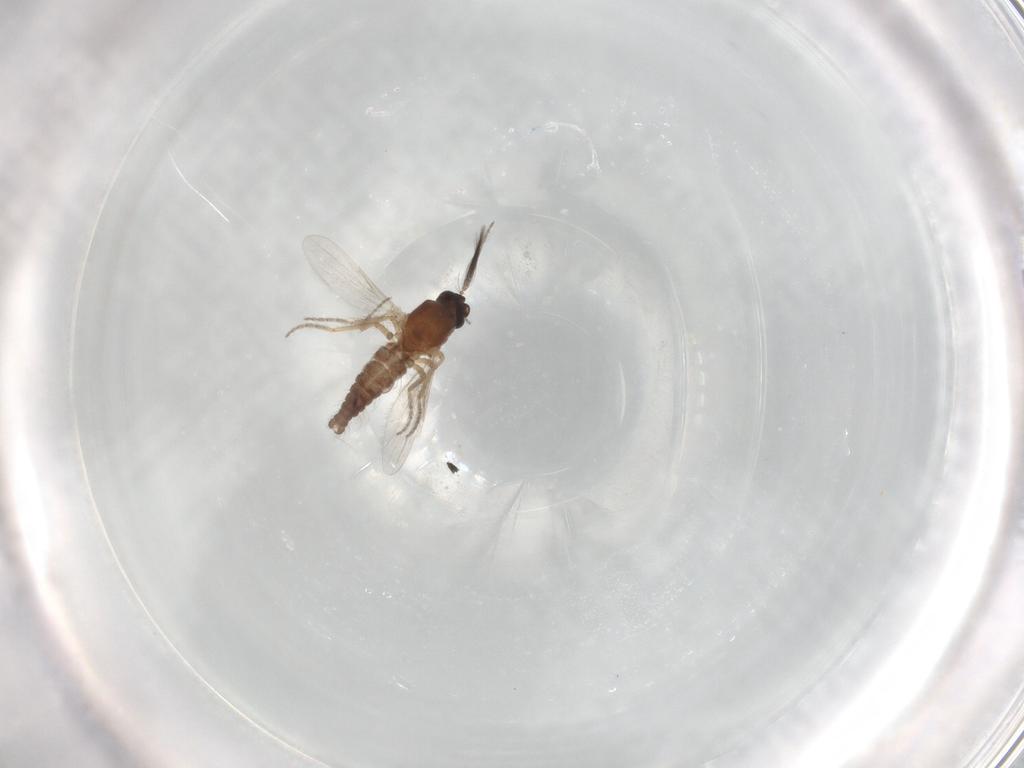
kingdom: Animalia
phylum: Arthropoda
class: Insecta
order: Diptera
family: Ceratopogonidae
